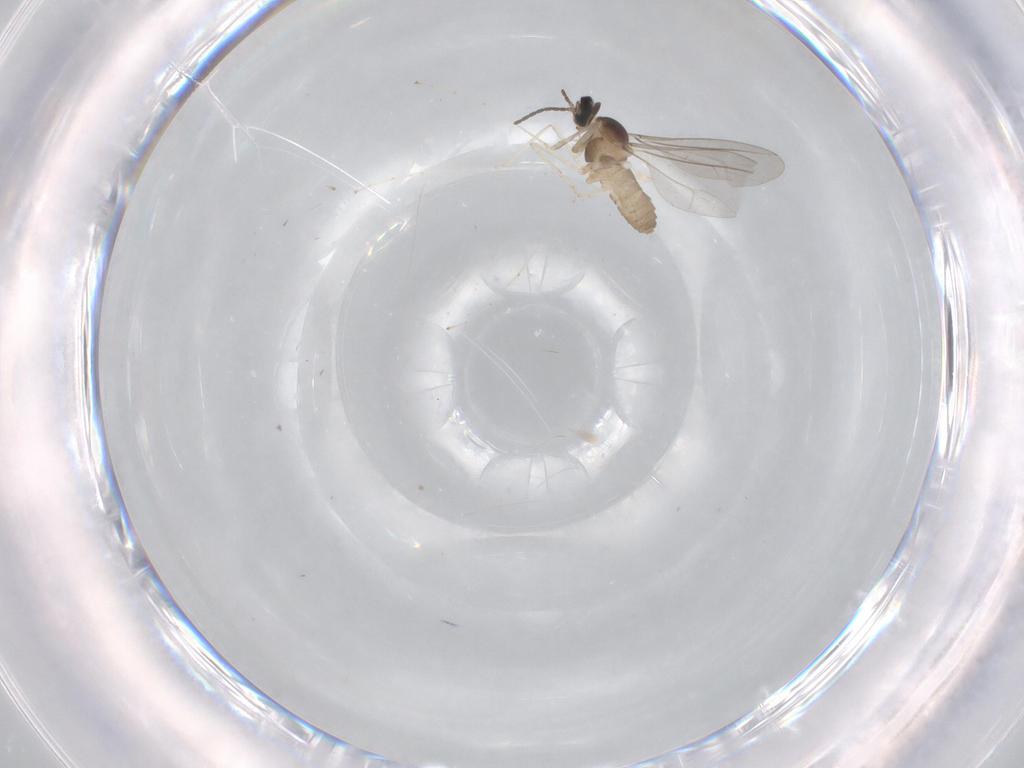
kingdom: Animalia
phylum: Arthropoda
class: Insecta
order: Diptera
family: Cecidomyiidae
